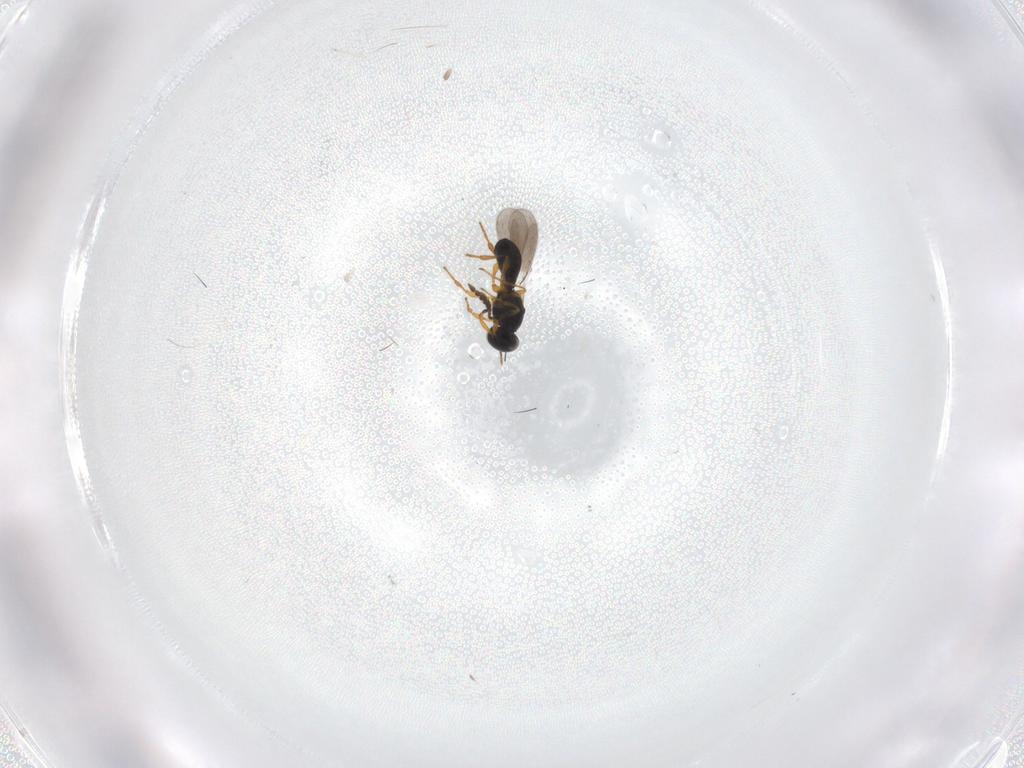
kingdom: Animalia
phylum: Arthropoda
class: Insecta
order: Hymenoptera
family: Platygastridae
